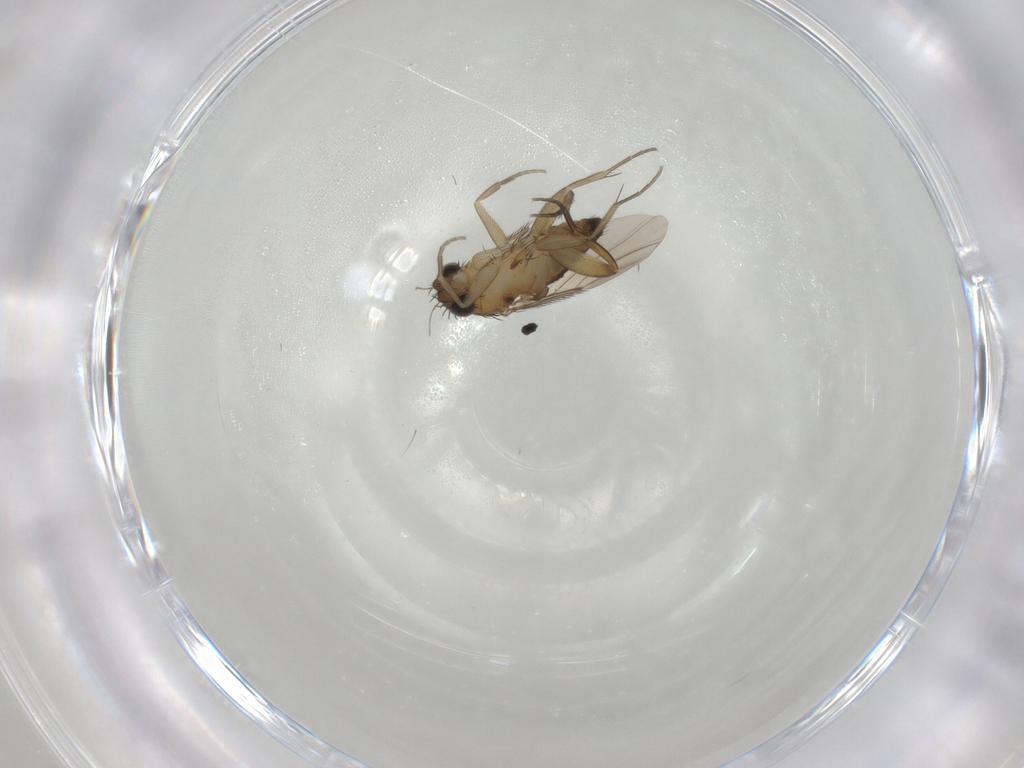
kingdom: Animalia
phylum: Arthropoda
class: Insecta
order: Diptera
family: Phoridae
